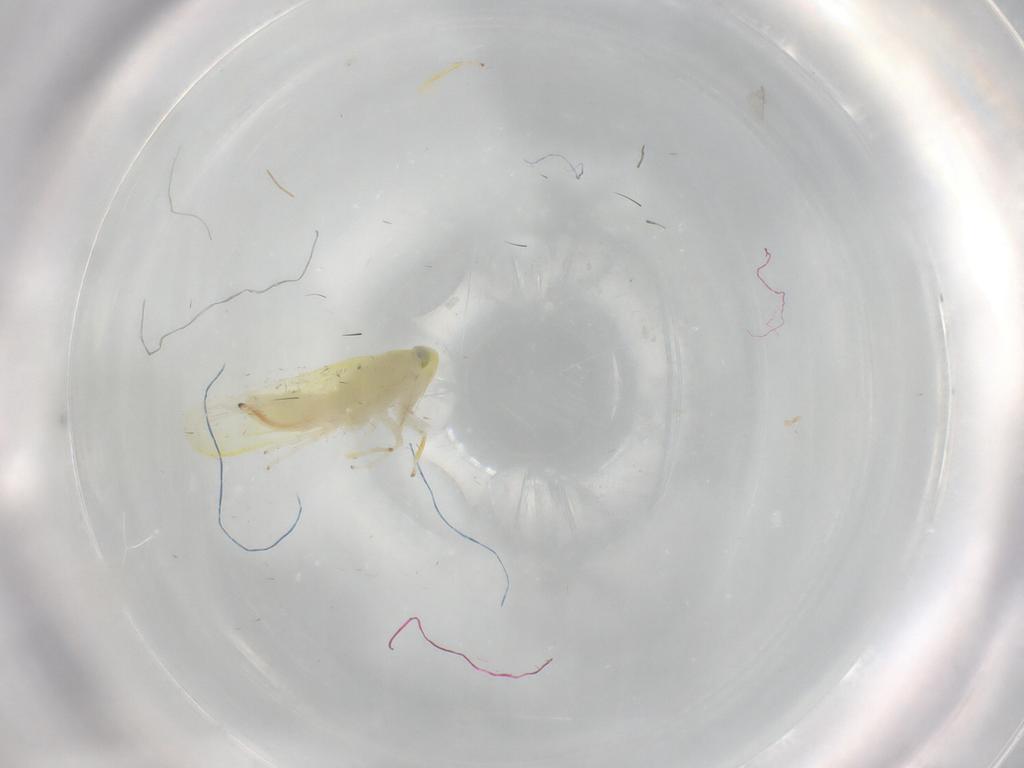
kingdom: Animalia
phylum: Arthropoda
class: Insecta
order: Hemiptera
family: Cicadellidae
